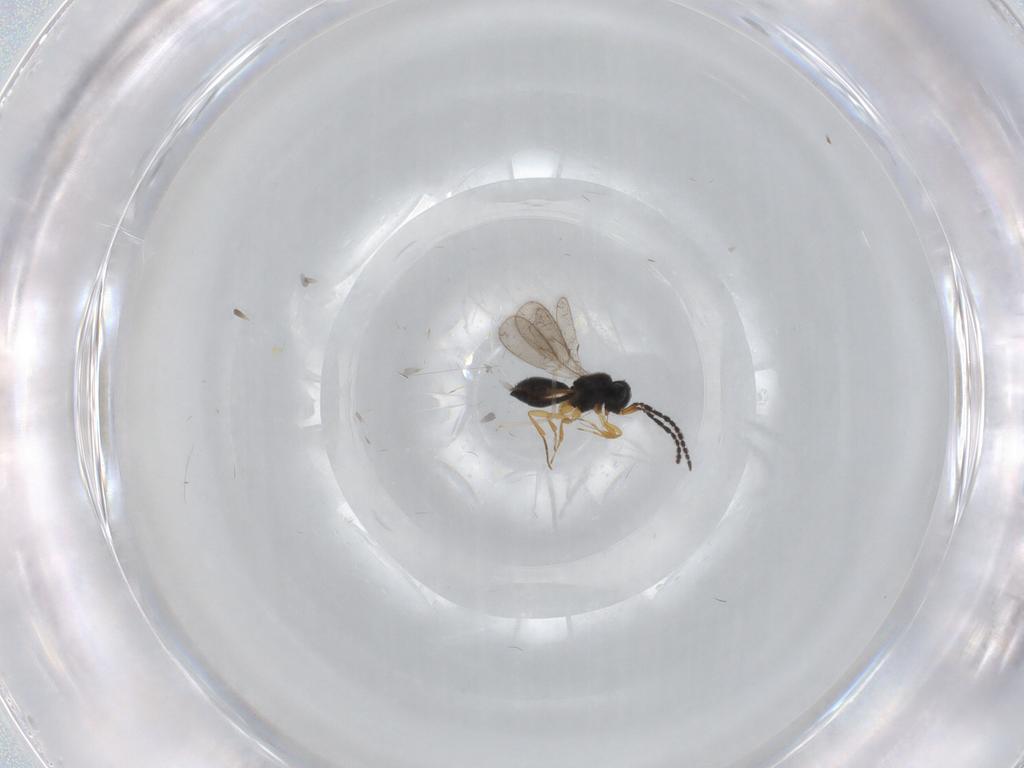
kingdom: Animalia
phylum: Arthropoda
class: Insecta
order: Hymenoptera
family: Scelionidae
